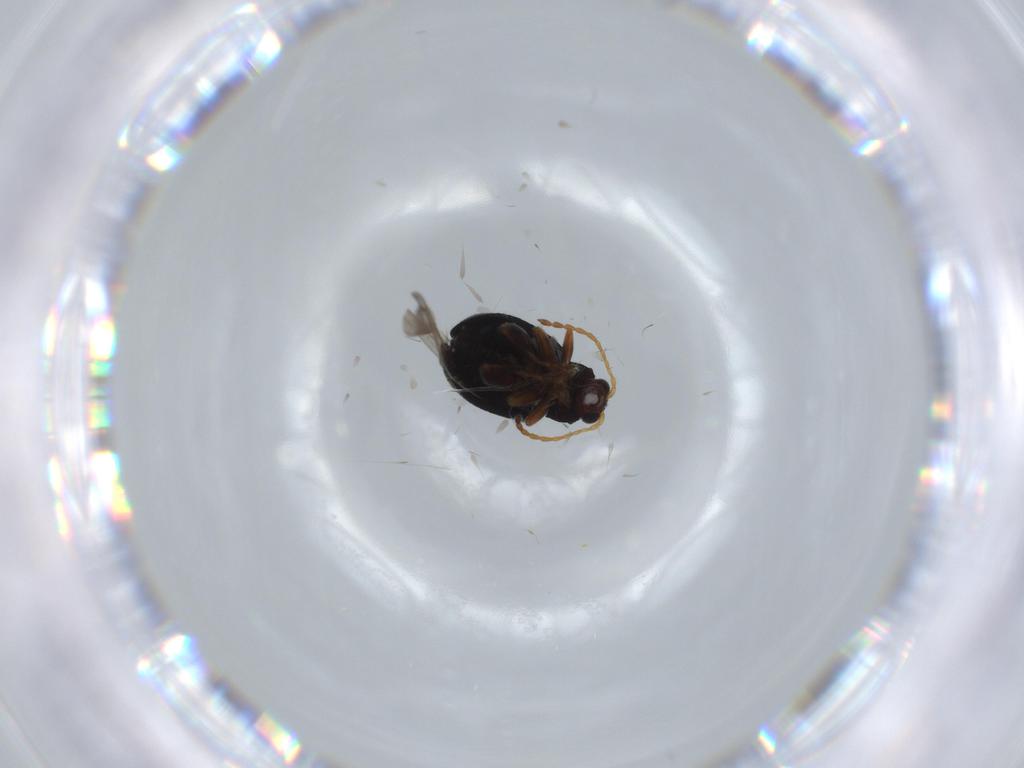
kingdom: Animalia
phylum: Arthropoda
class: Insecta
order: Coleoptera
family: Chrysomelidae
